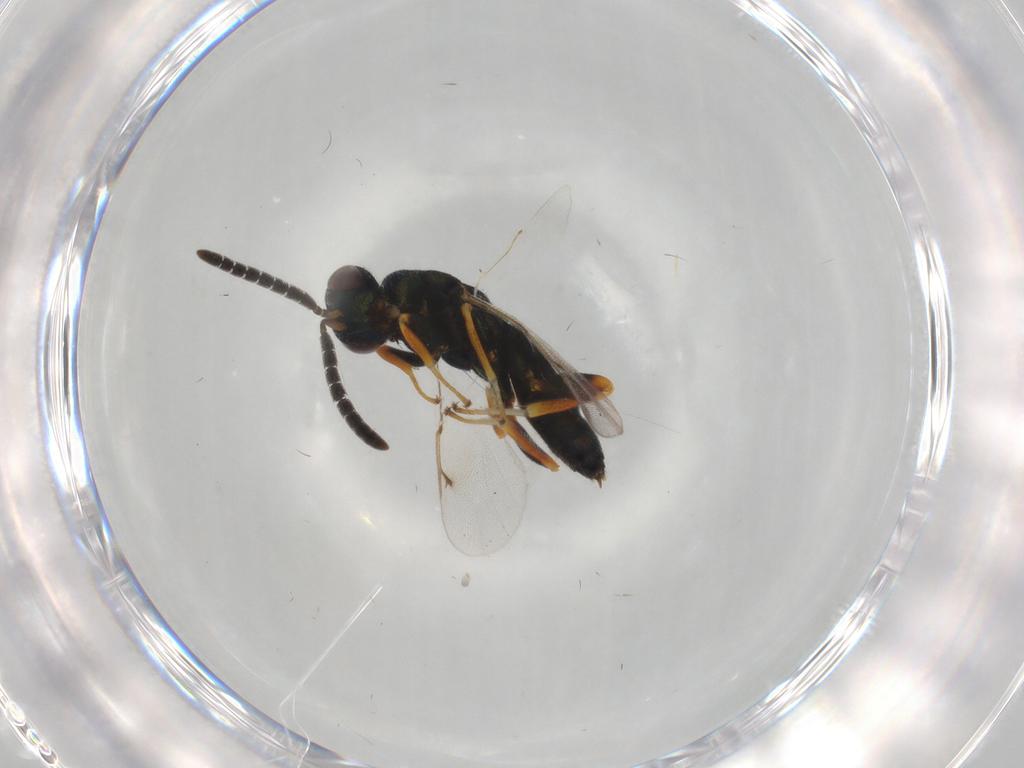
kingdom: Animalia
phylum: Arthropoda
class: Insecta
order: Hymenoptera
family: Torymidae
